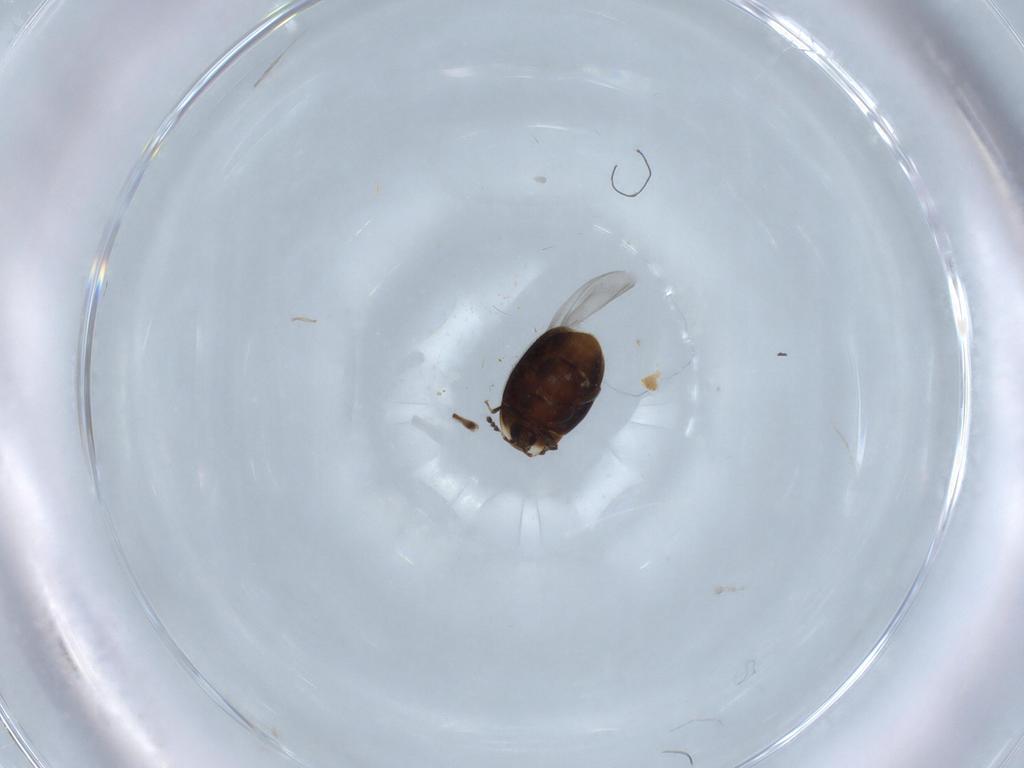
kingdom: Animalia
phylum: Arthropoda
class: Insecta
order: Coleoptera
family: Corylophidae
